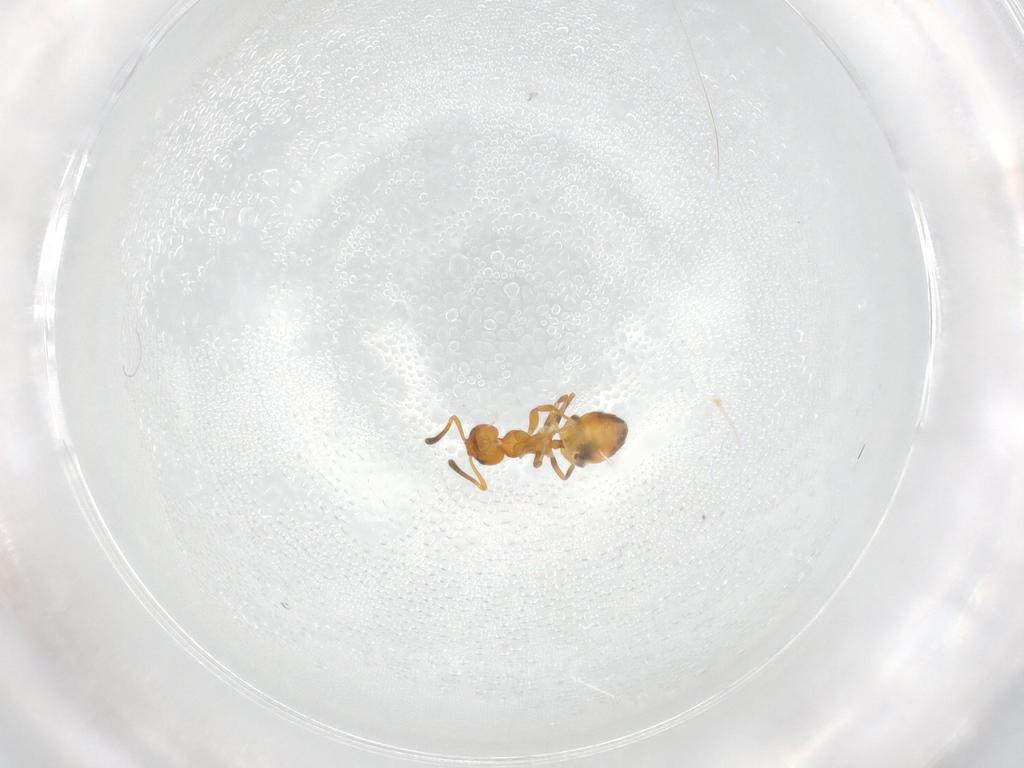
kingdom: Animalia
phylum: Arthropoda
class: Insecta
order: Hymenoptera
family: Formicidae
